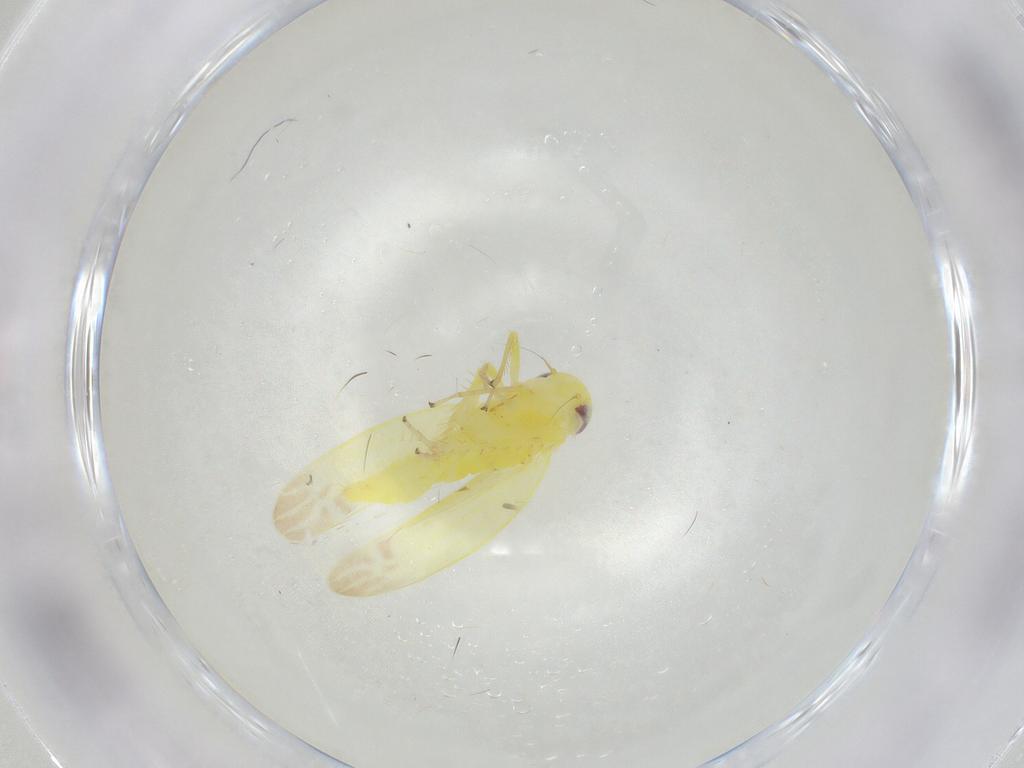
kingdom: Animalia
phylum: Arthropoda
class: Insecta
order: Hemiptera
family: Cicadellidae
